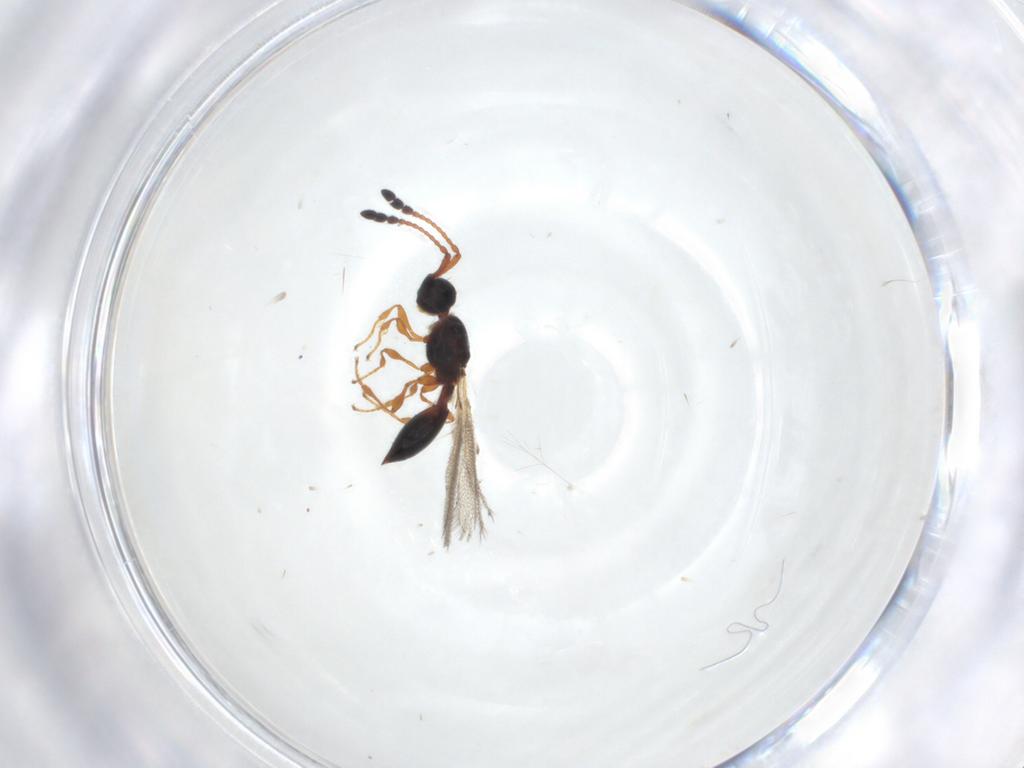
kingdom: Animalia
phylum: Arthropoda
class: Insecta
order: Hymenoptera
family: Diapriidae
